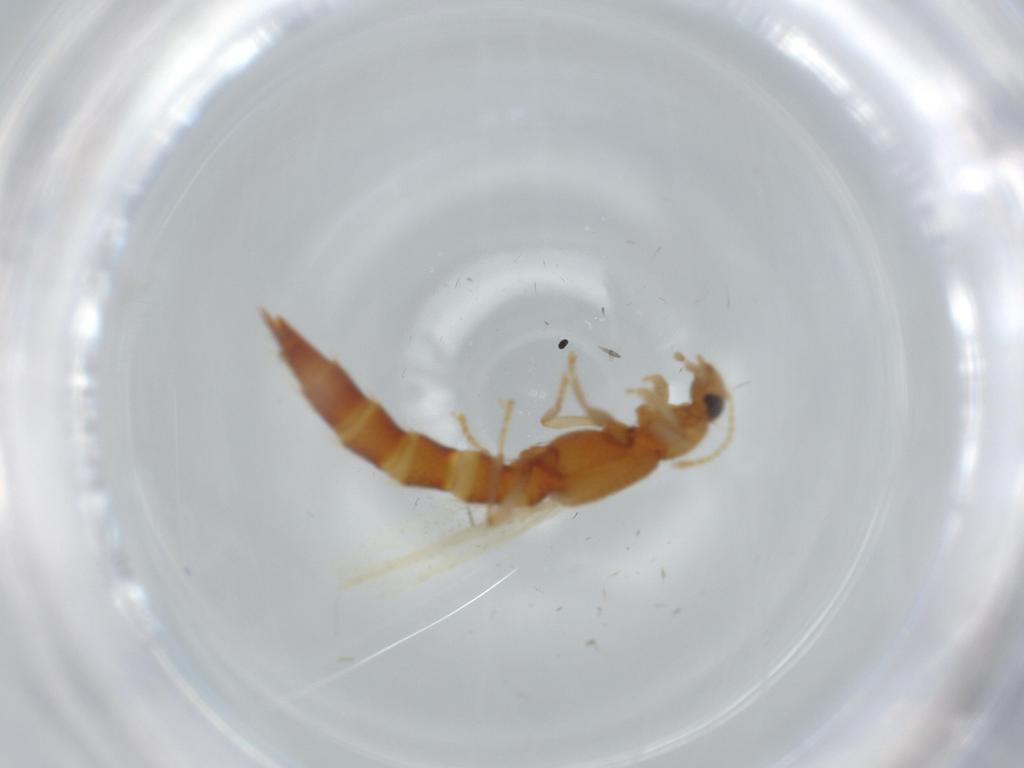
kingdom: Animalia
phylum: Arthropoda
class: Insecta
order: Coleoptera
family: Staphylinidae
